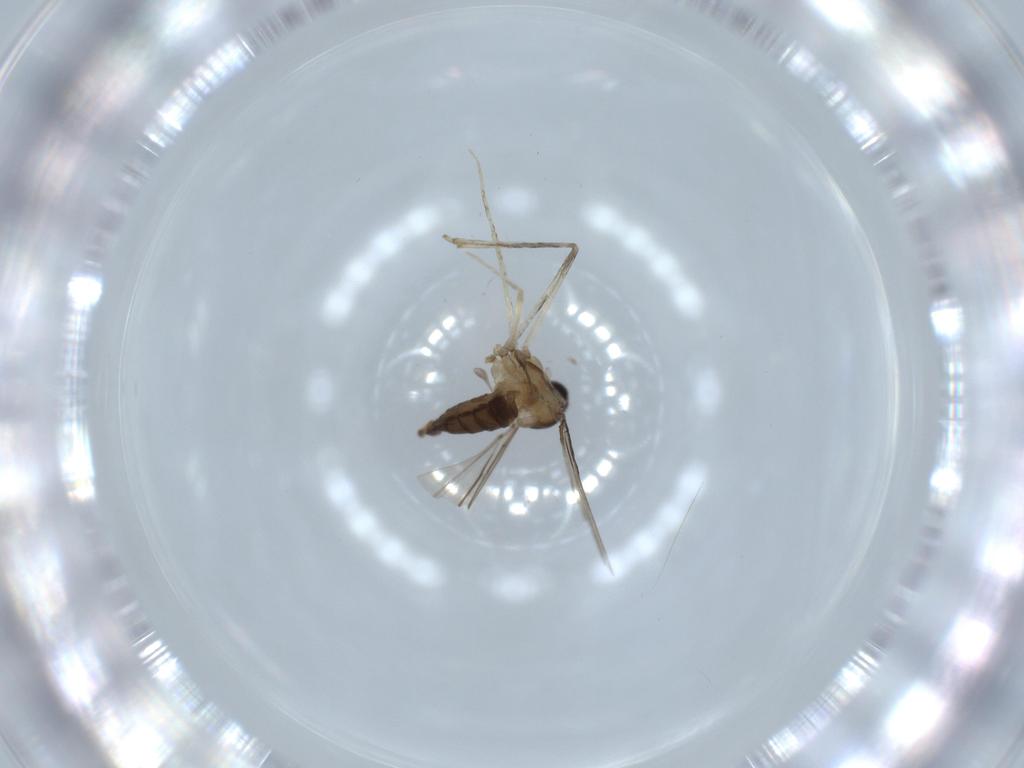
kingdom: Animalia
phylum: Arthropoda
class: Insecta
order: Diptera
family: Cecidomyiidae
